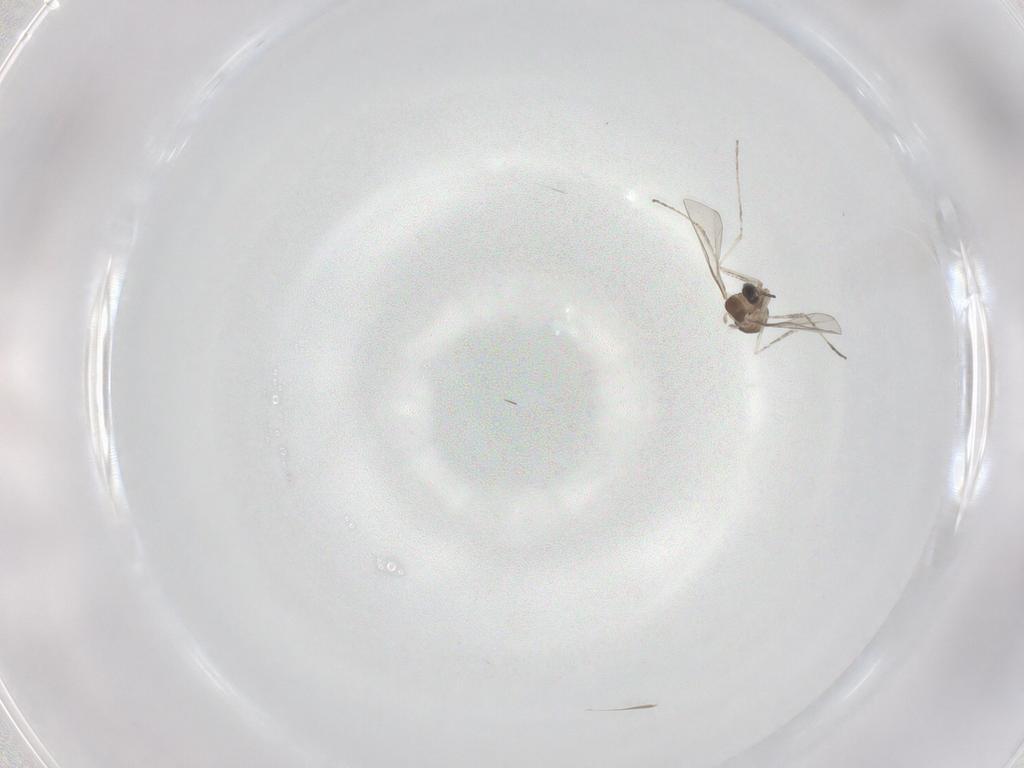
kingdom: Animalia
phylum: Arthropoda
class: Insecta
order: Diptera
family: Cecidomyiidae
